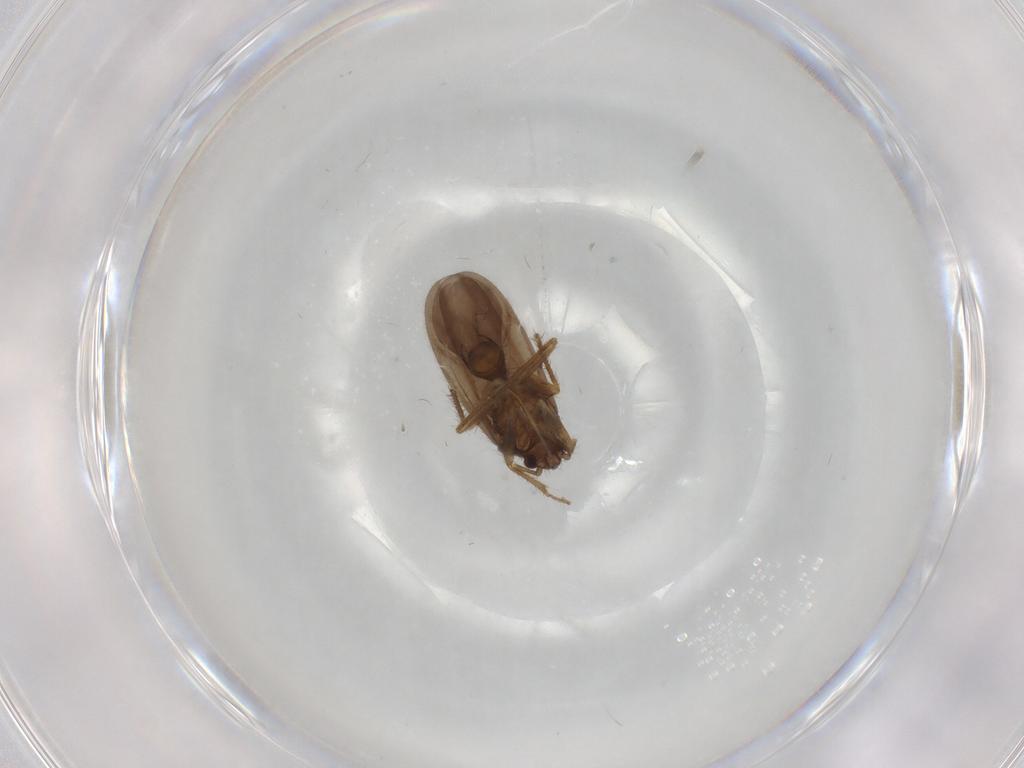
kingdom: Animalia
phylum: Arthropoda
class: Insecta
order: Hemiptera
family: Ceratocombidae
